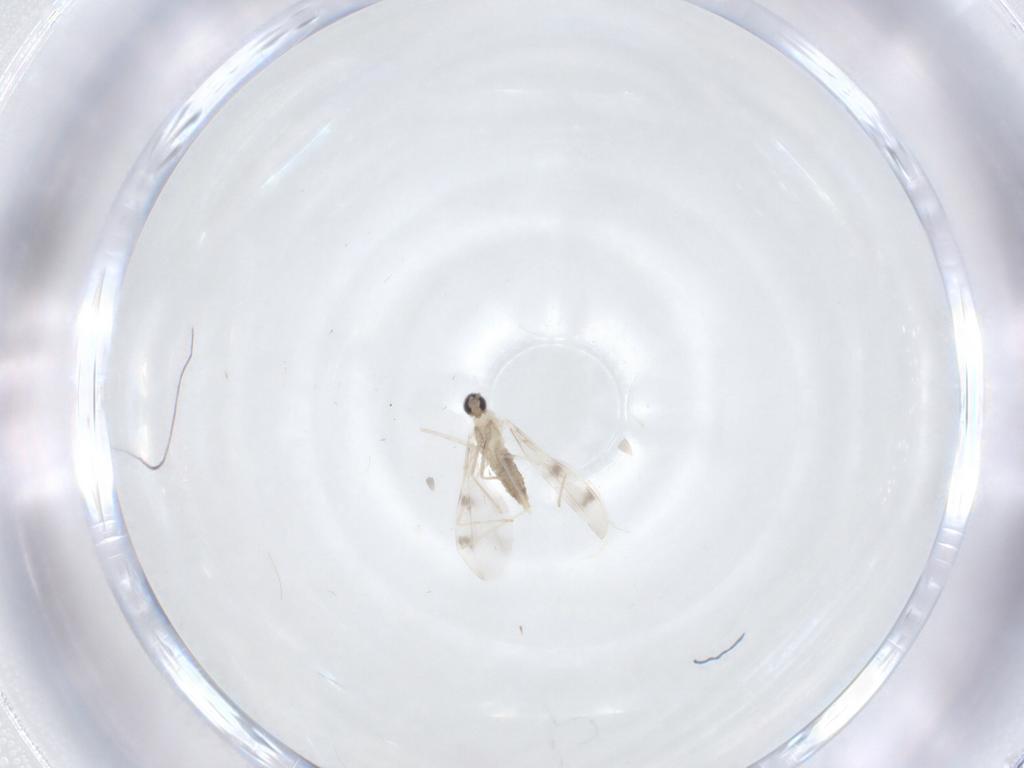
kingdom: Animalia
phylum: Arthropoda
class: Insecta
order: Diptera
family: Cecidomyiidae
